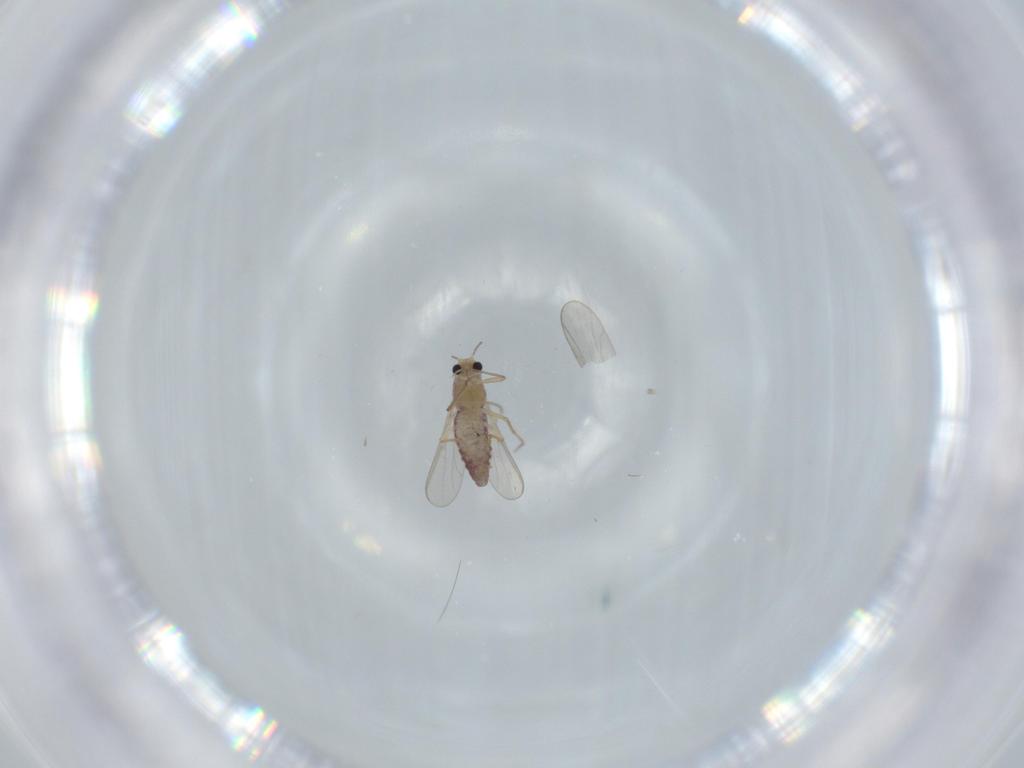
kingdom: Animalia
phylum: Arthropoda
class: Insecta
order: Diptera
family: Chironomidae
